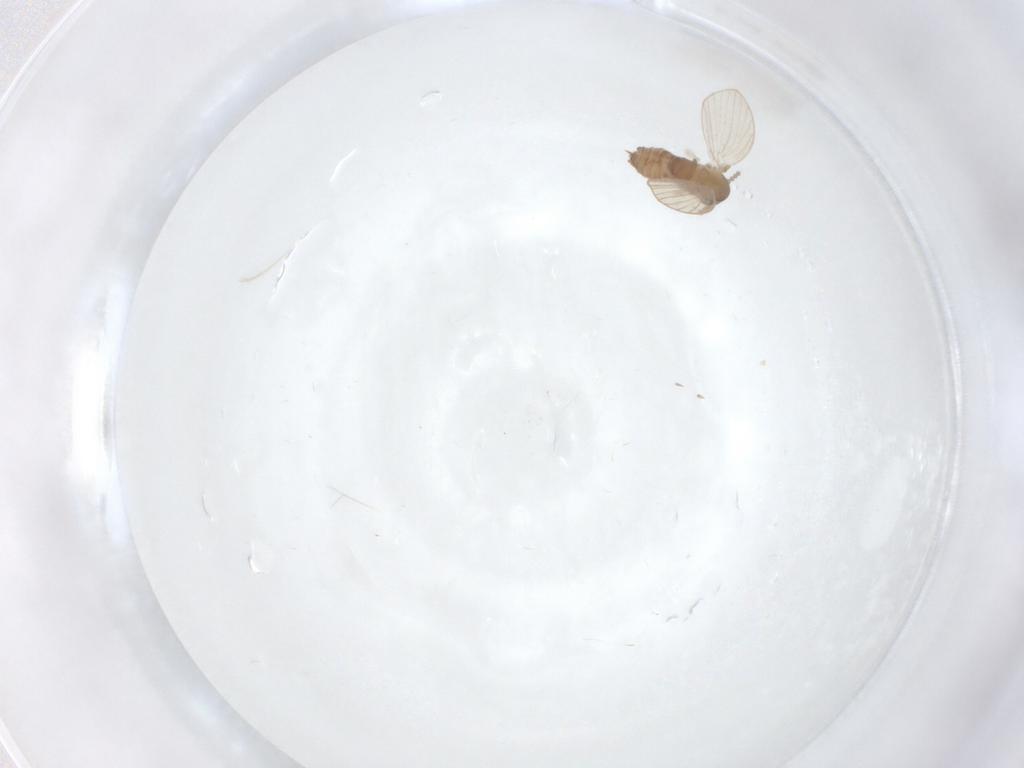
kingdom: Animalia
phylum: Arthropoda
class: Insecta
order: Diptera
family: Psychodidae
